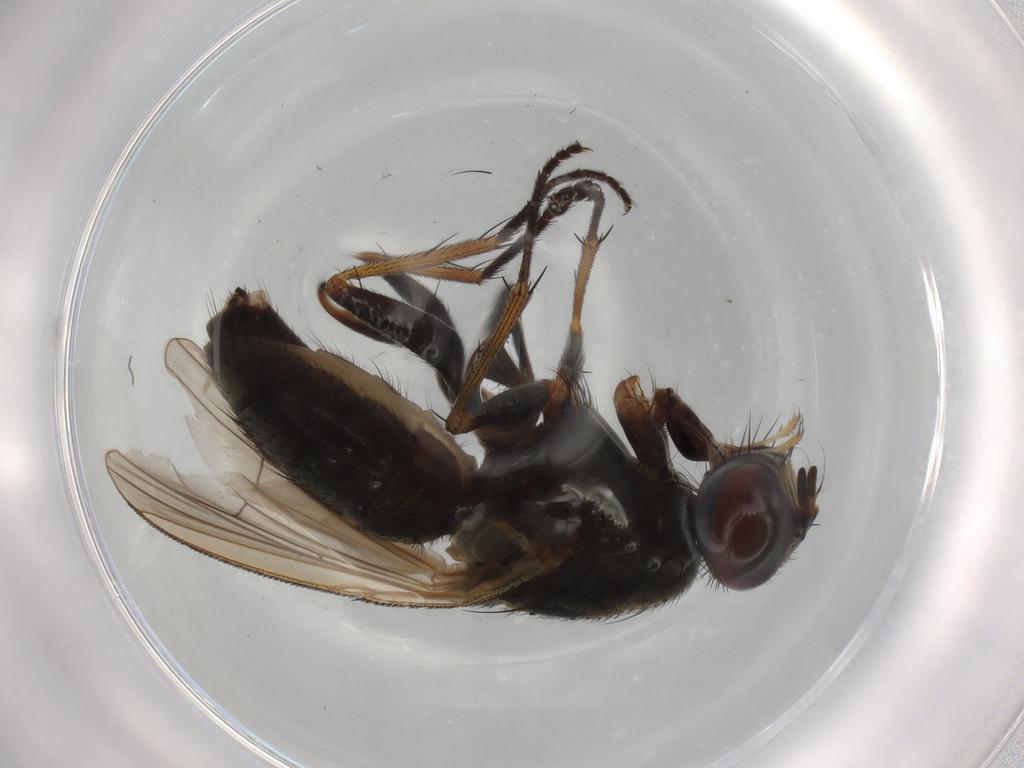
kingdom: Animalia
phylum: Arthropoda
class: Insecta
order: Diptera
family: Muscidae
